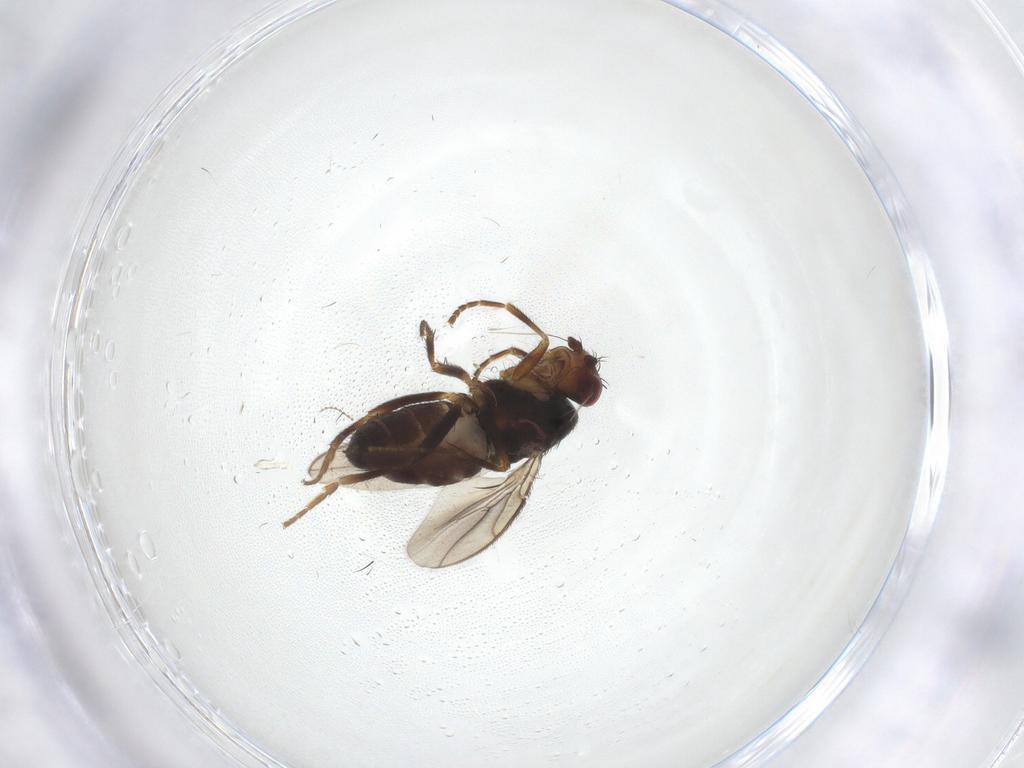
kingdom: Animalia
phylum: Arthropoda
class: Insecta
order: Diptera
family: Sphaeroceridae
